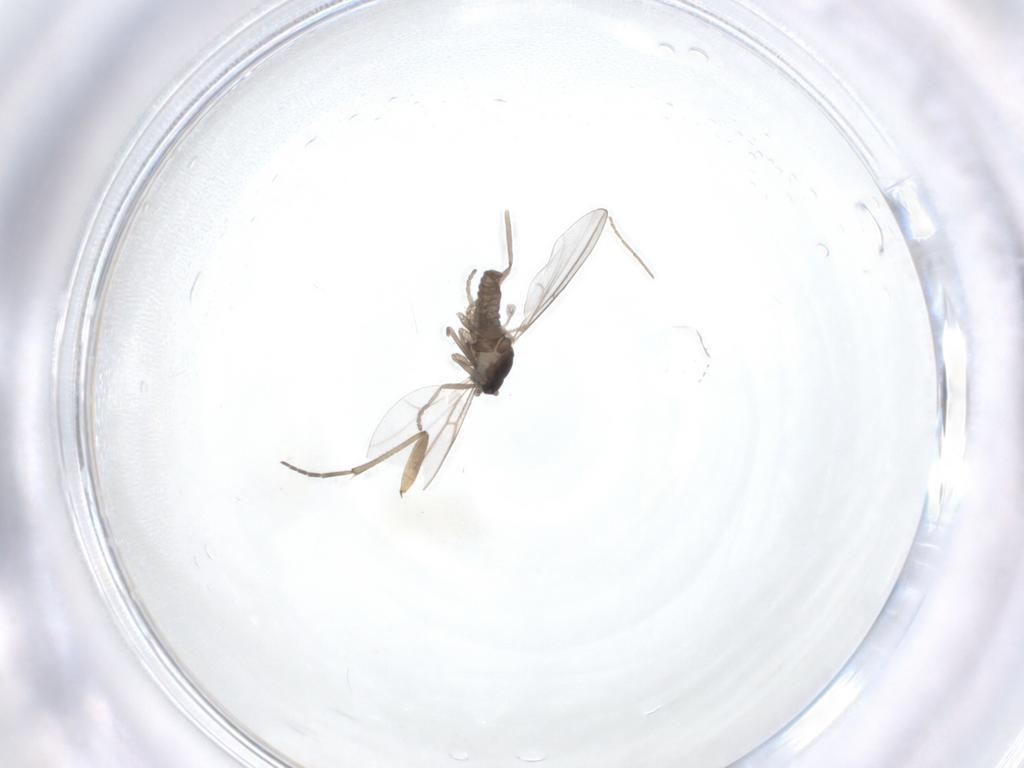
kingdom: Animalia
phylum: Arthropoda
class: Insecta
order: Diptera
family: Cecidomyiidae
